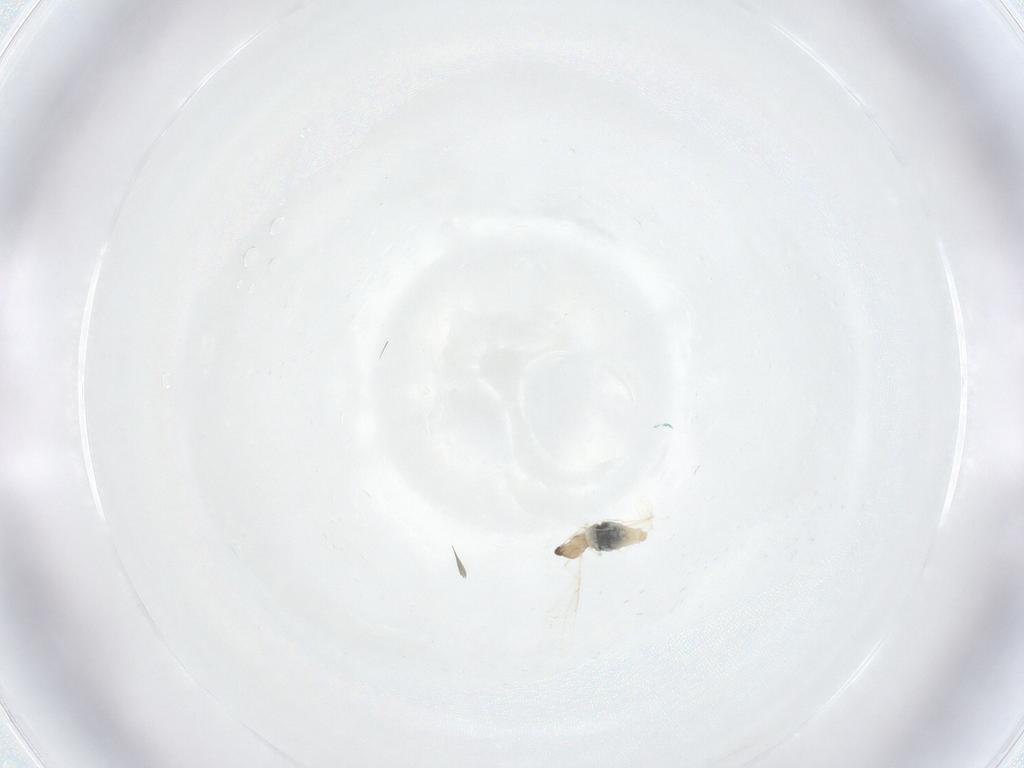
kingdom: Animalia
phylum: Arthropoda
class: Insecta
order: Diptera
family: Cecidomyiidae
